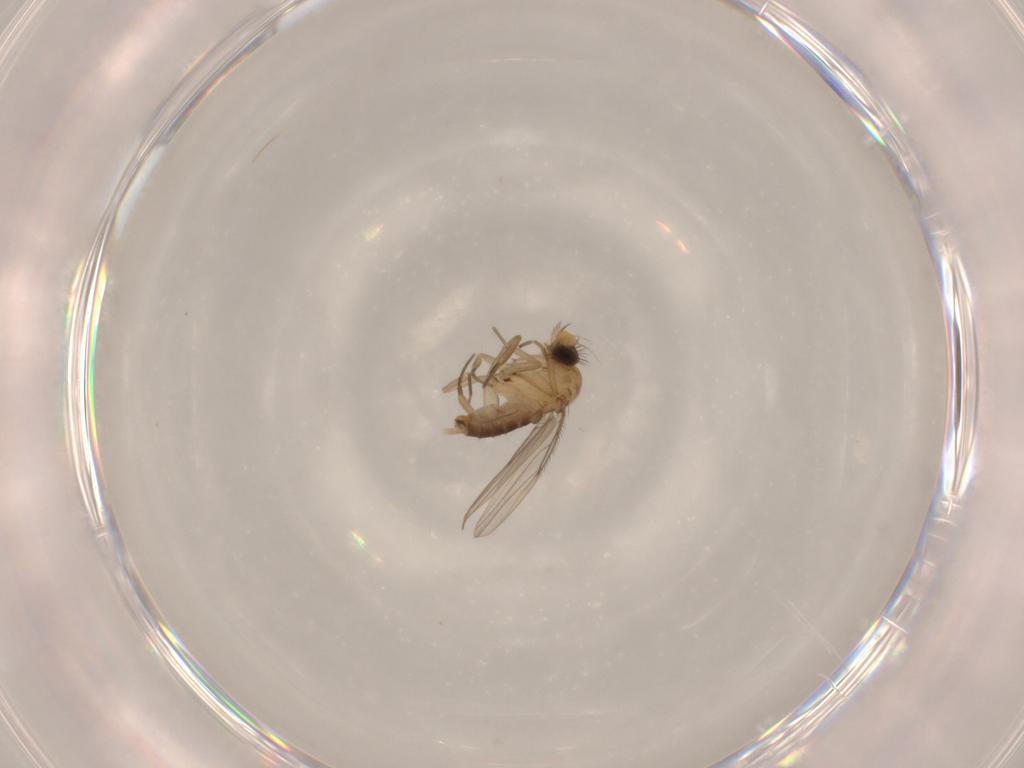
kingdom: Animalia
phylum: Arthropoda
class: Insecta
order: Diptera
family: Phoridae
